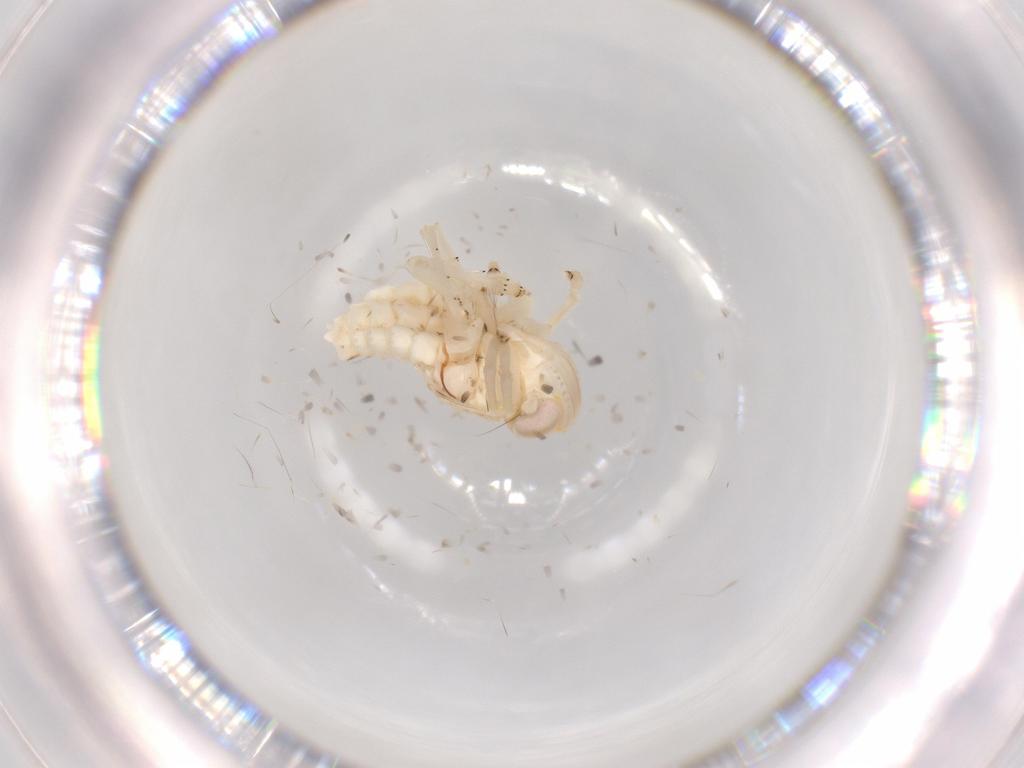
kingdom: Animalia
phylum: Arthropoda
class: Insecta
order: Hemiptera
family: Nogodinidae
